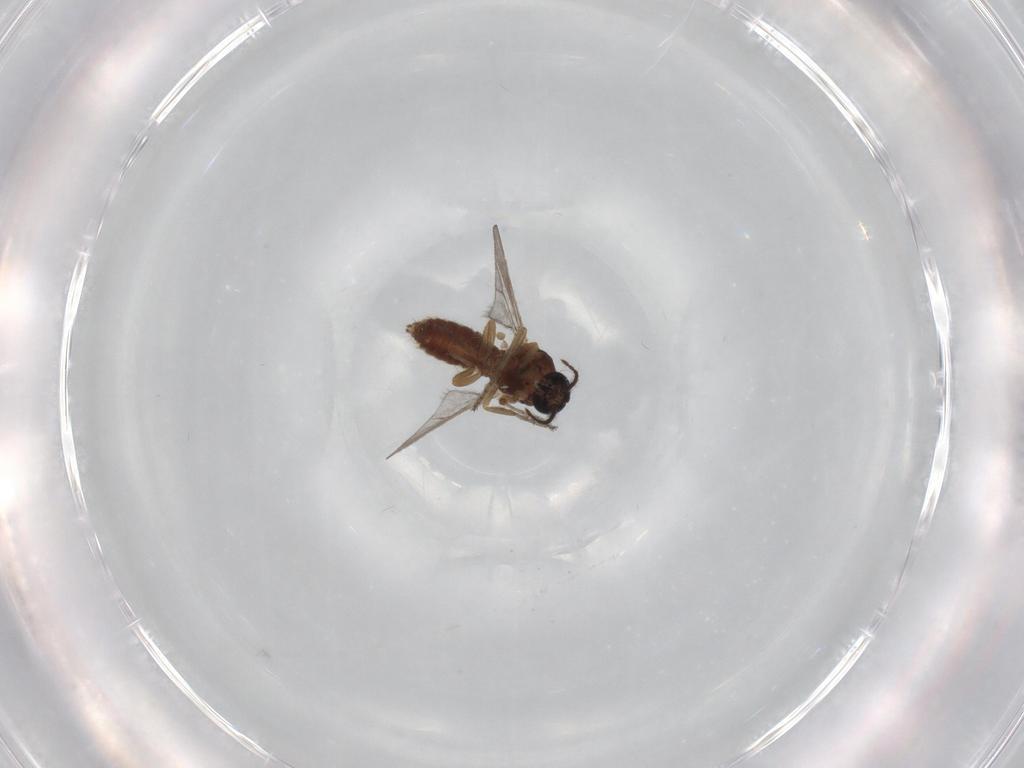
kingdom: Animalia
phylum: Arthropoda
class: Insecta
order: Diptera
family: Ceratopogonidae
